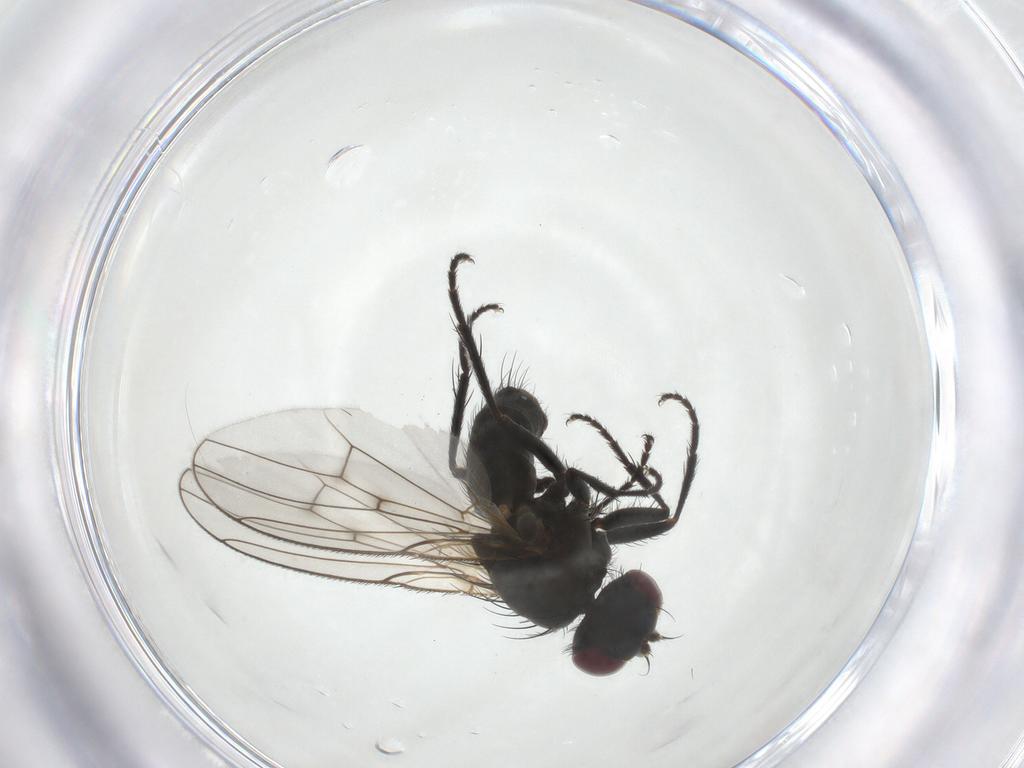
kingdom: Animalia
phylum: Arthropoda
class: Insecta
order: Diptera
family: Muscidae
